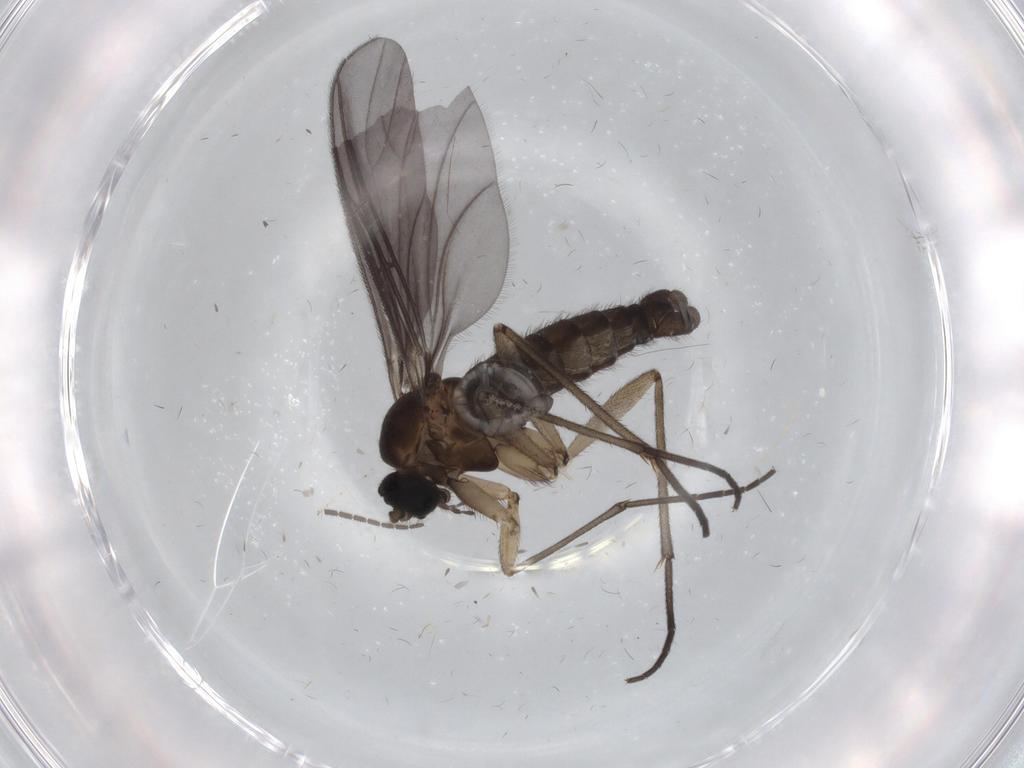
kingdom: Animalia
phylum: Arthropoda
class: Insecta
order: Diptera
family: Sciaridae
